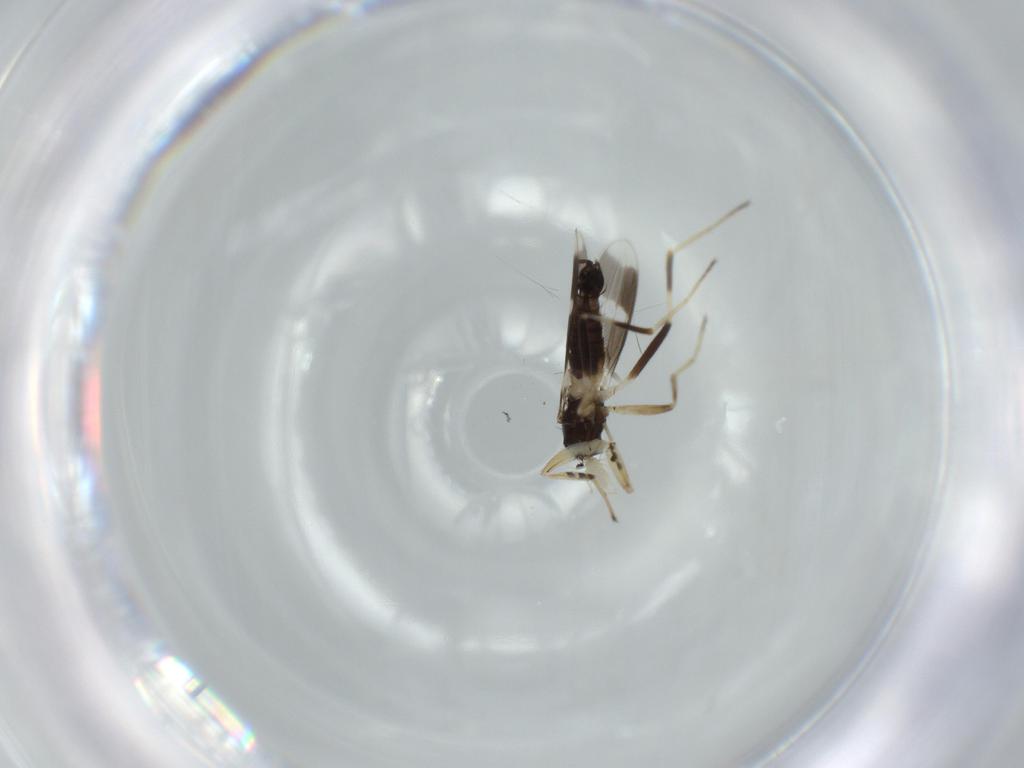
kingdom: Animalia
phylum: Arthropoda
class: Insecta
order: Diptera
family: Hybotidae
